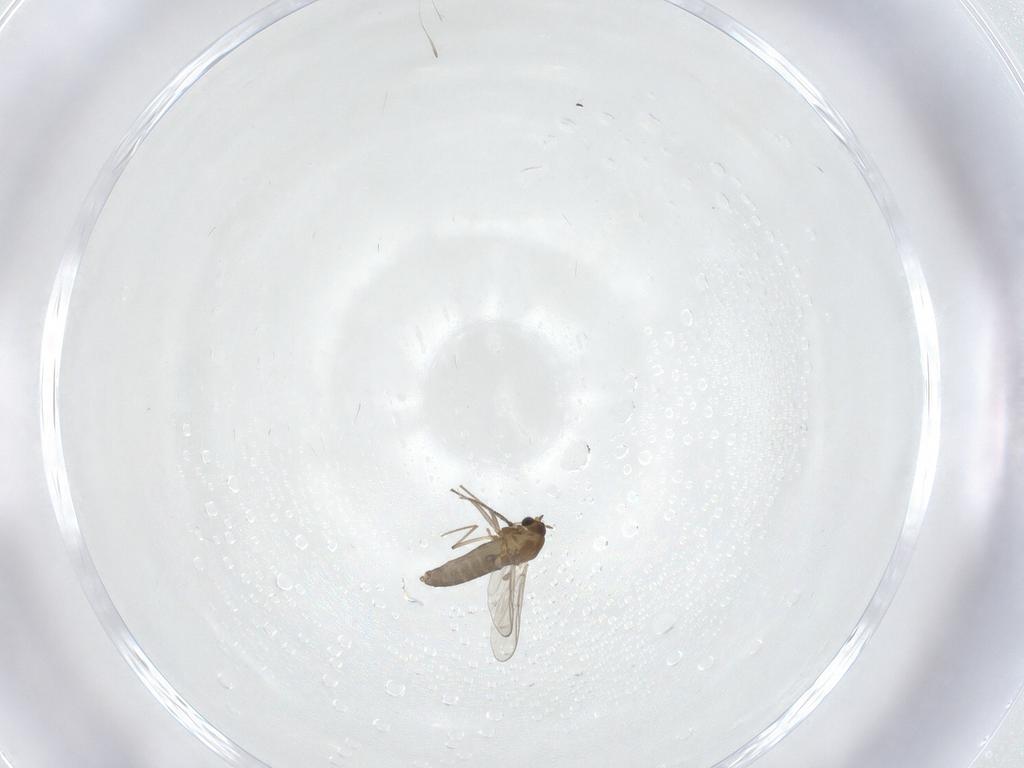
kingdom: Animalia
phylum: Arthropoda
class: Insecta
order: Diptera
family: Chironomidae
